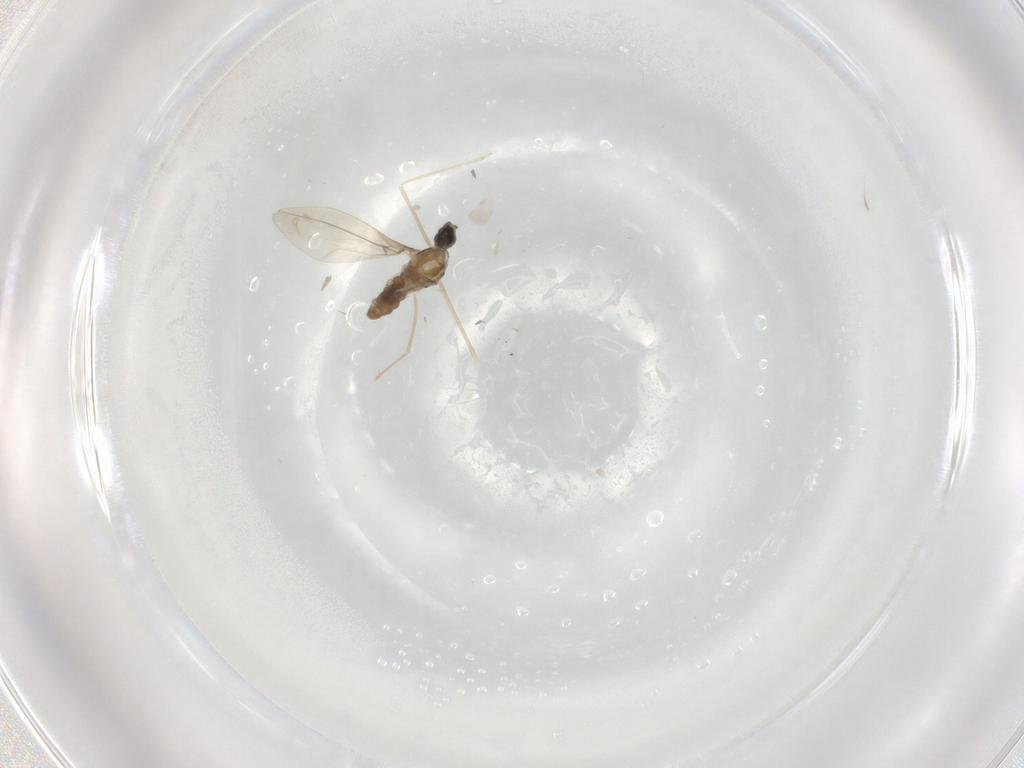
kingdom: Animalia
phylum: Arthropoda
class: Insecta
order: Diptera
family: Cecidomyiidae
